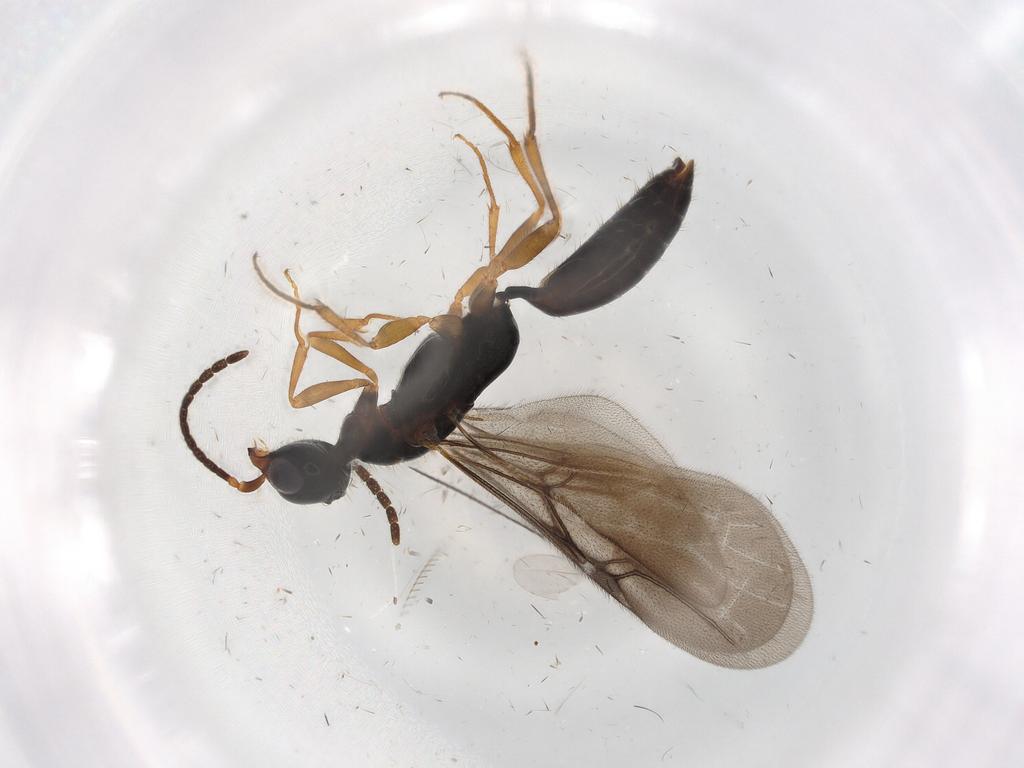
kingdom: Animalia
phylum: Arthropoda
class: Insecta
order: Hymenoptera
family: Bethylidae
